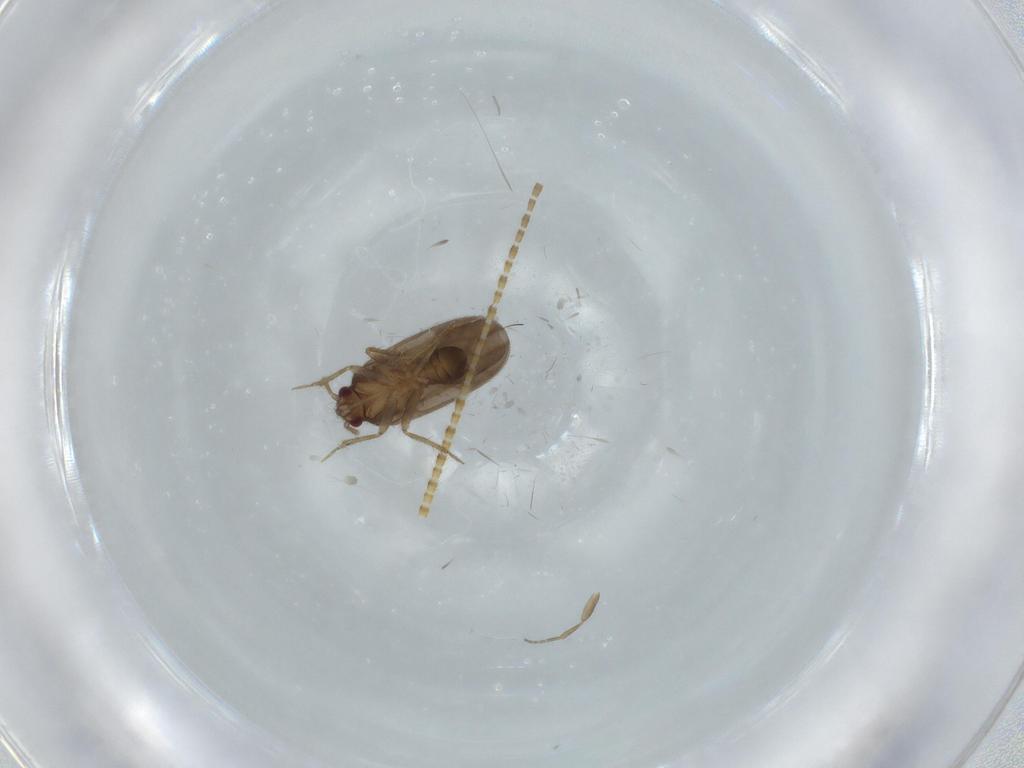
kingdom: Animalia
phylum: Arthropoda
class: Insecta
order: Hemiptera
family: Ceratocombidae
